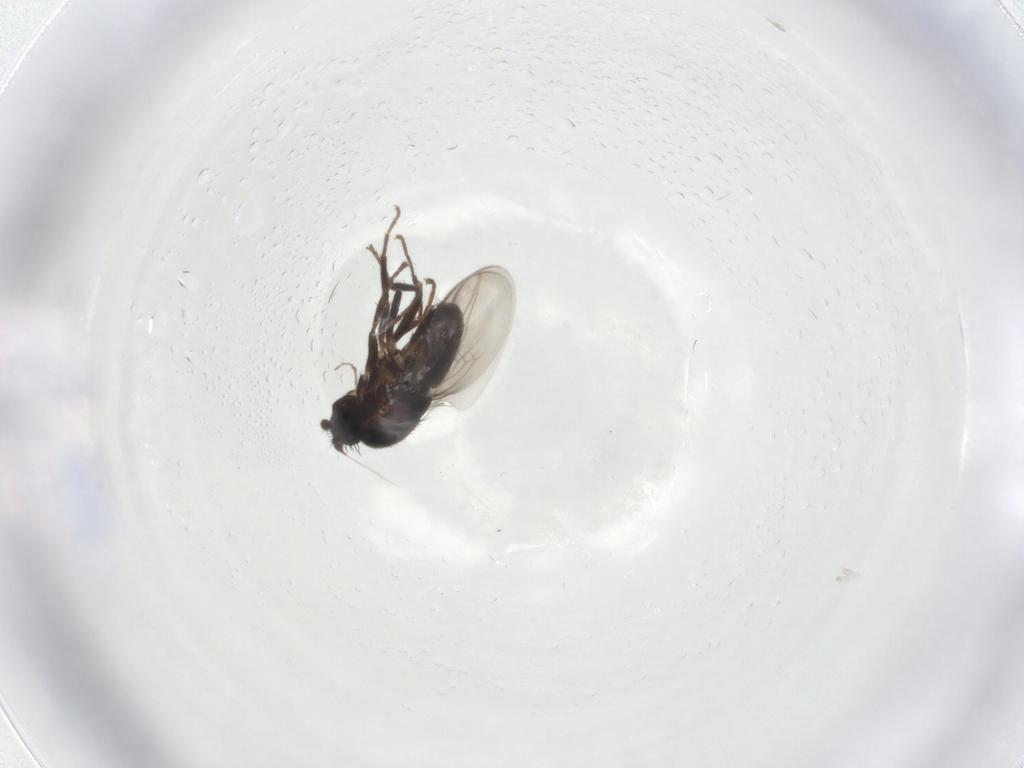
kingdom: Animalia
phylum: Arthropoda
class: Insecta
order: Diptera
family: Sphaeroceridae
